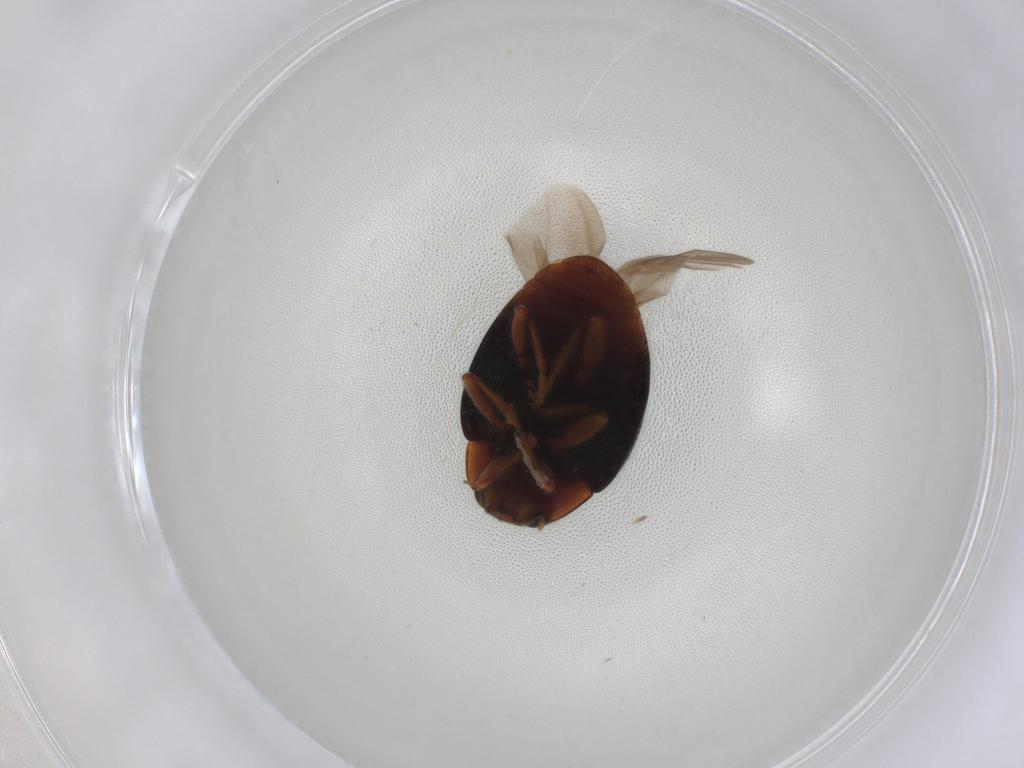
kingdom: Animalia
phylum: Arthropoda
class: Insecta
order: Coleoptera
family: Coccinellidae
